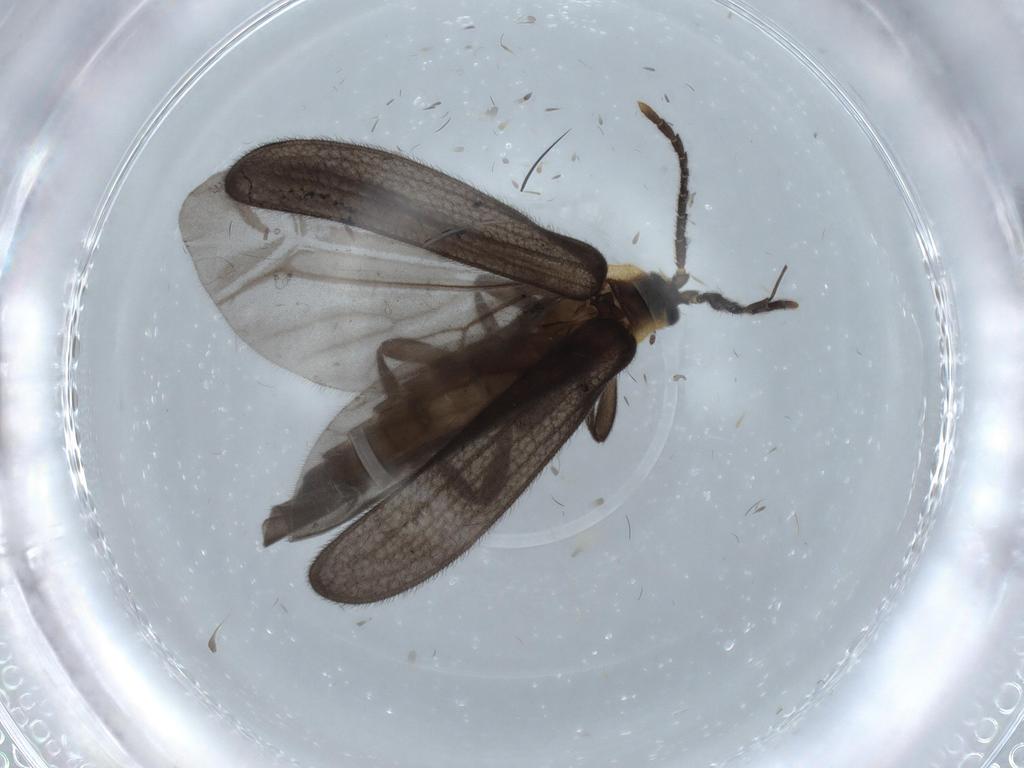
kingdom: Animalia
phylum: Arthropoda
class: Insecta
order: Coleoptera
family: Lycidae
